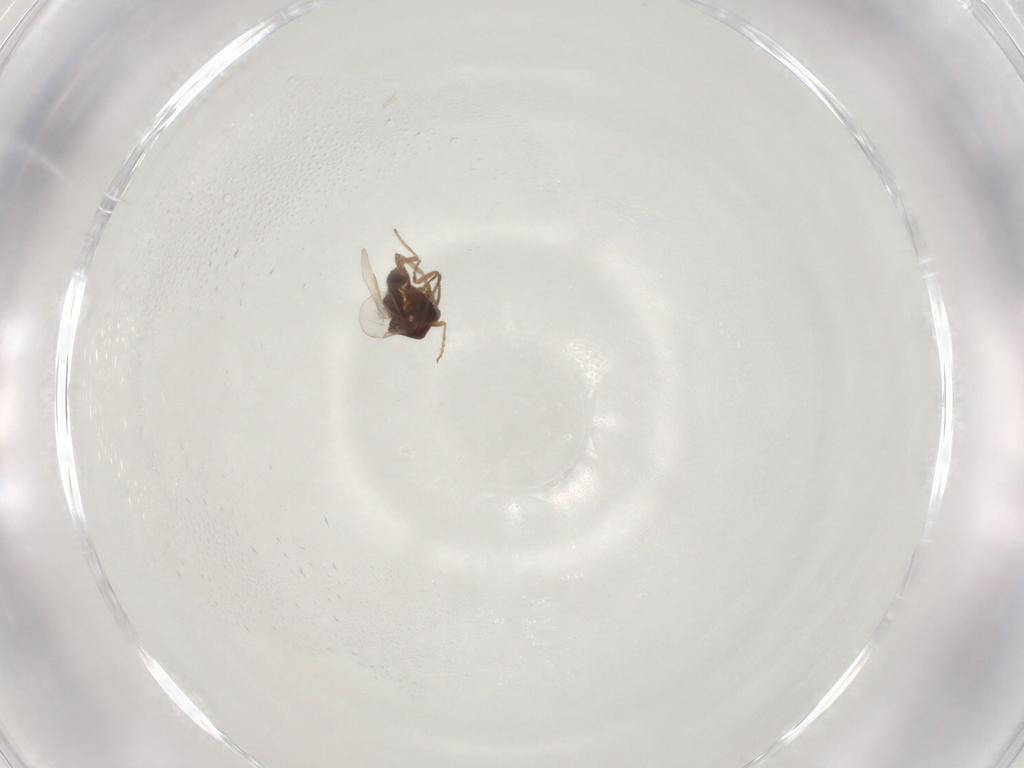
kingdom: Animalia
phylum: Arthropoda
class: Insecta
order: Diptera
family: Ceratopogonidae
